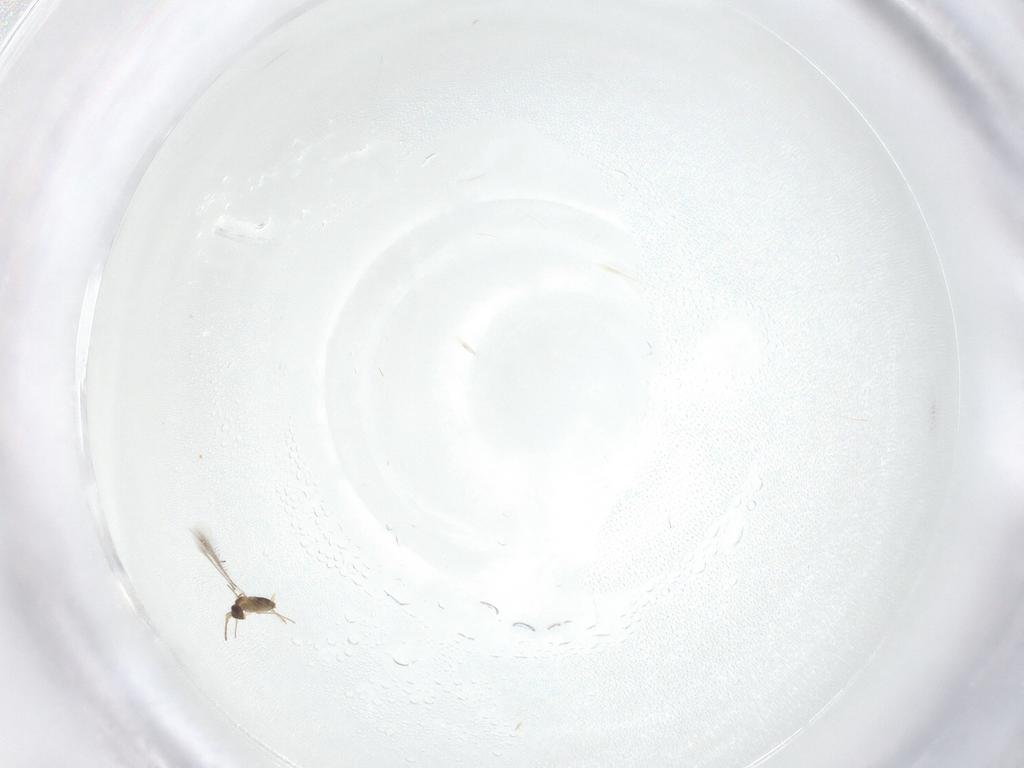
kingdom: Animalia
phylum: Arthropoda
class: Insecta
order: Hymenoptera
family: Mymaridae
